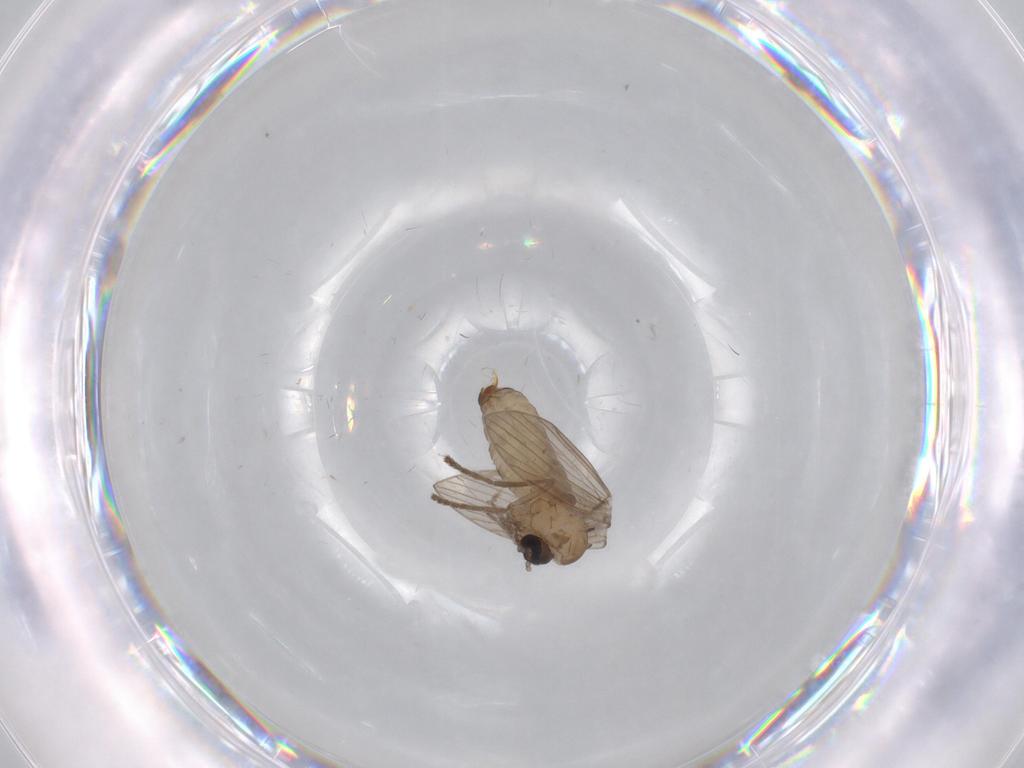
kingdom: Animalia
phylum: Arthropoda
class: Insecta
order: Diptera
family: Psychodidae
